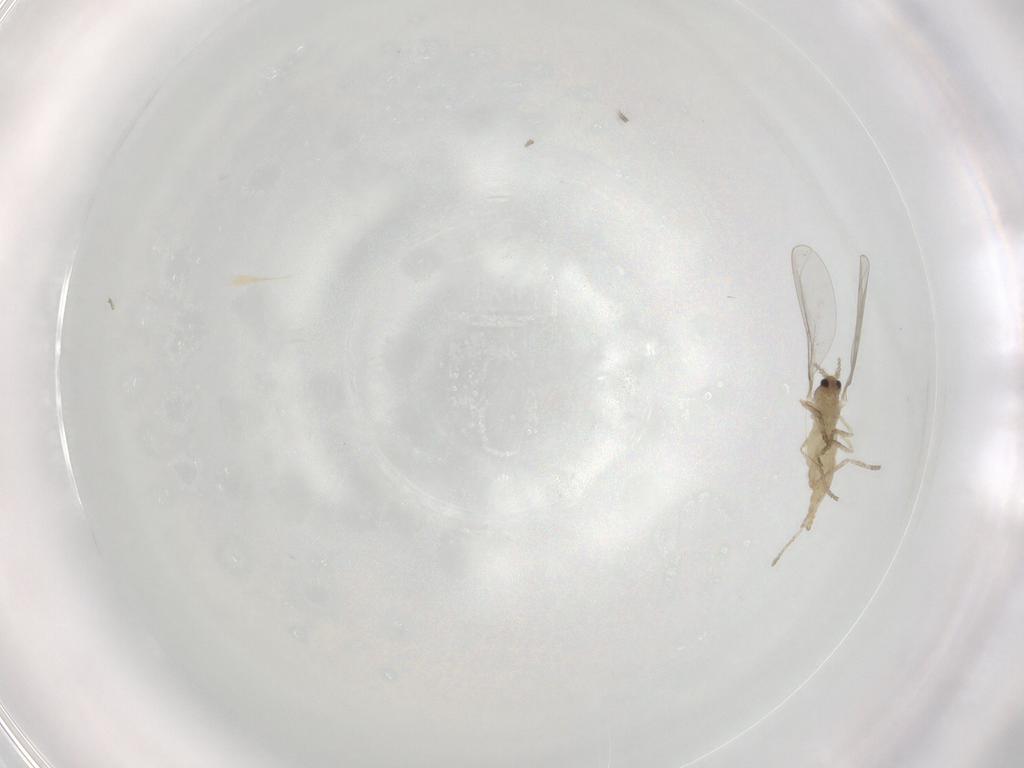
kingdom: Animalia
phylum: Arthropoda
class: Insecta
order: Diptera
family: Cecidomyiidae
